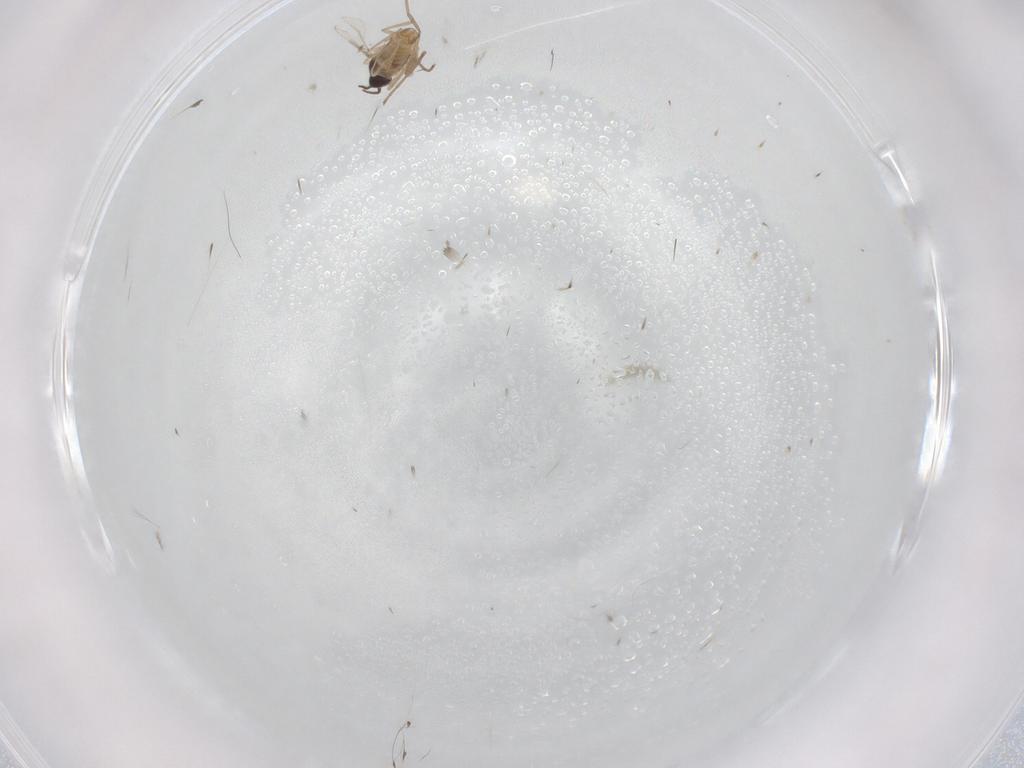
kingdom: Animalia
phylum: Arthropoda
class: Insecta
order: Diptera
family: Cecidomyiidae
